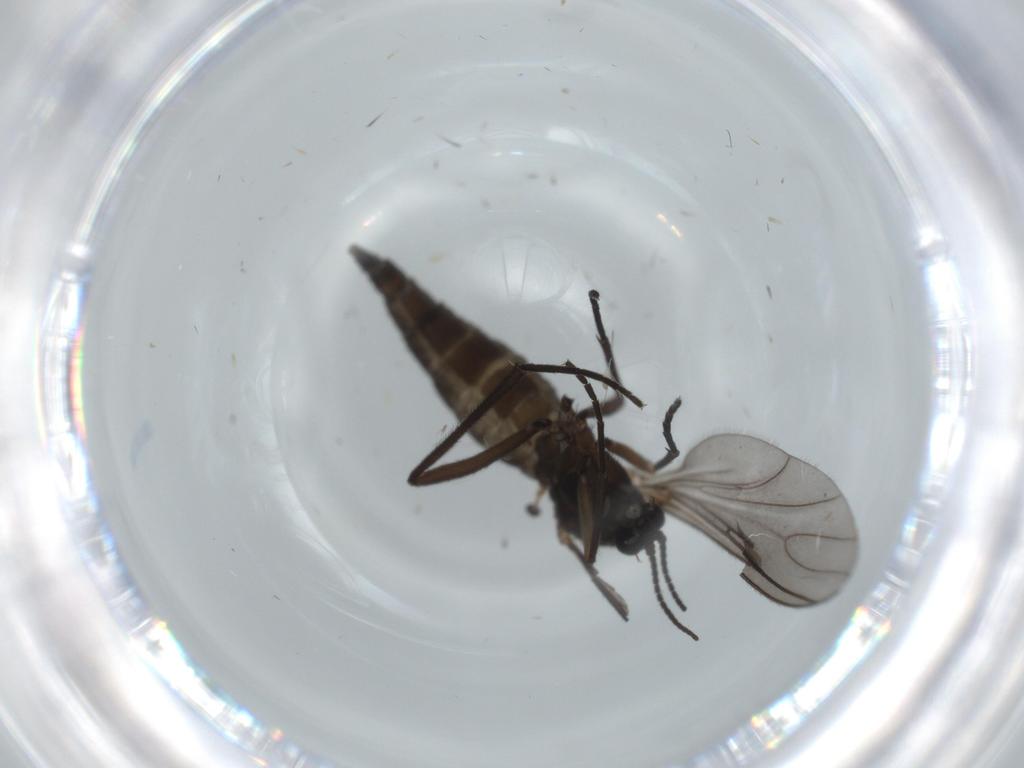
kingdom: Animalia
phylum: Arthropoda
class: Insecta
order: Diptera
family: Sciaridae
